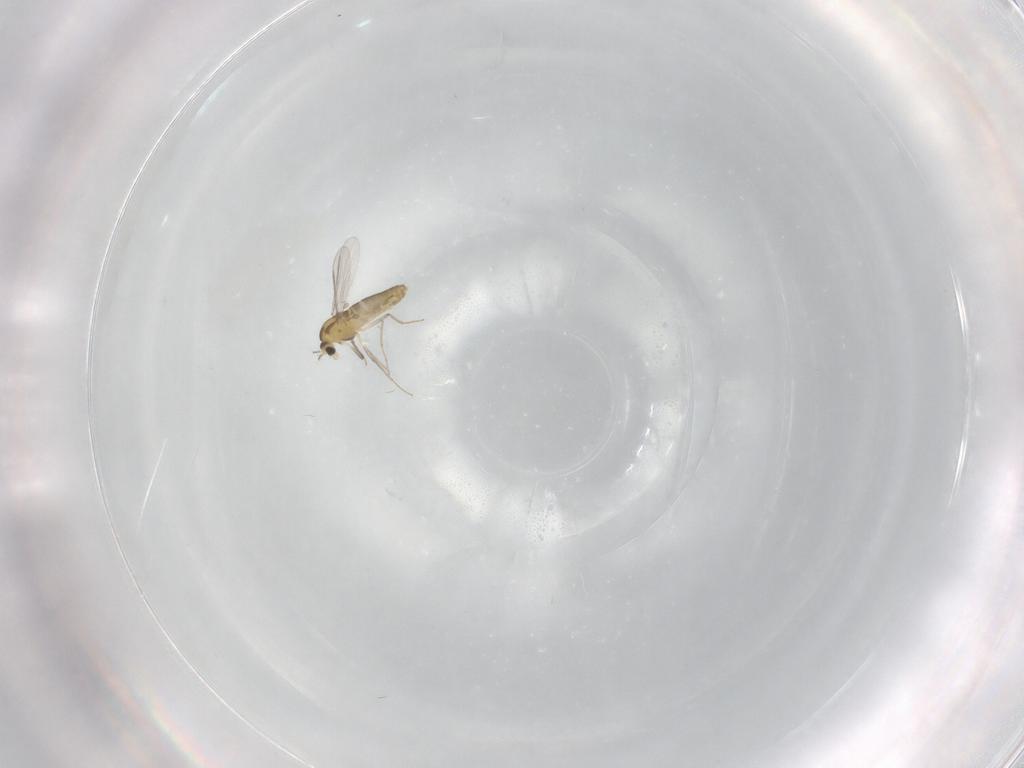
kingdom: Animalia
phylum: Arthropoda
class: Insecta
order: Diptera
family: Chironomidae
